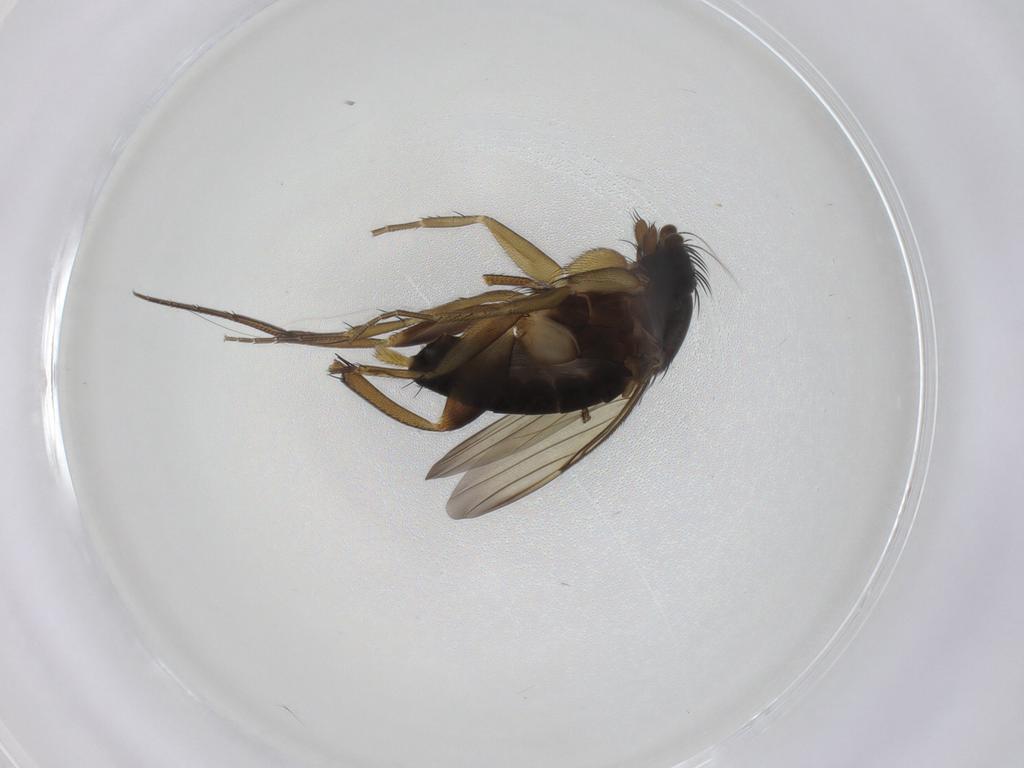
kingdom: Animalia
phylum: Arthropoda
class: Insecta
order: Diptera
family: Phoridae
